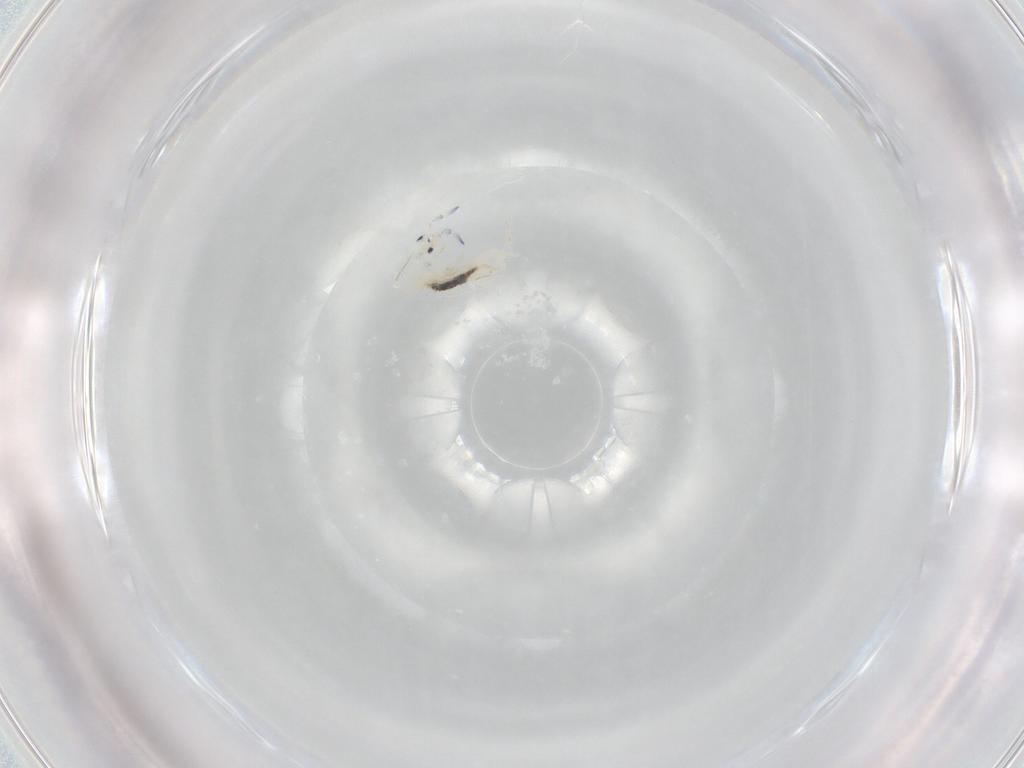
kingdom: Animalia
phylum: Arthropoda
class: Collembola
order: Entomobryomorpha
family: Entomobryidae
